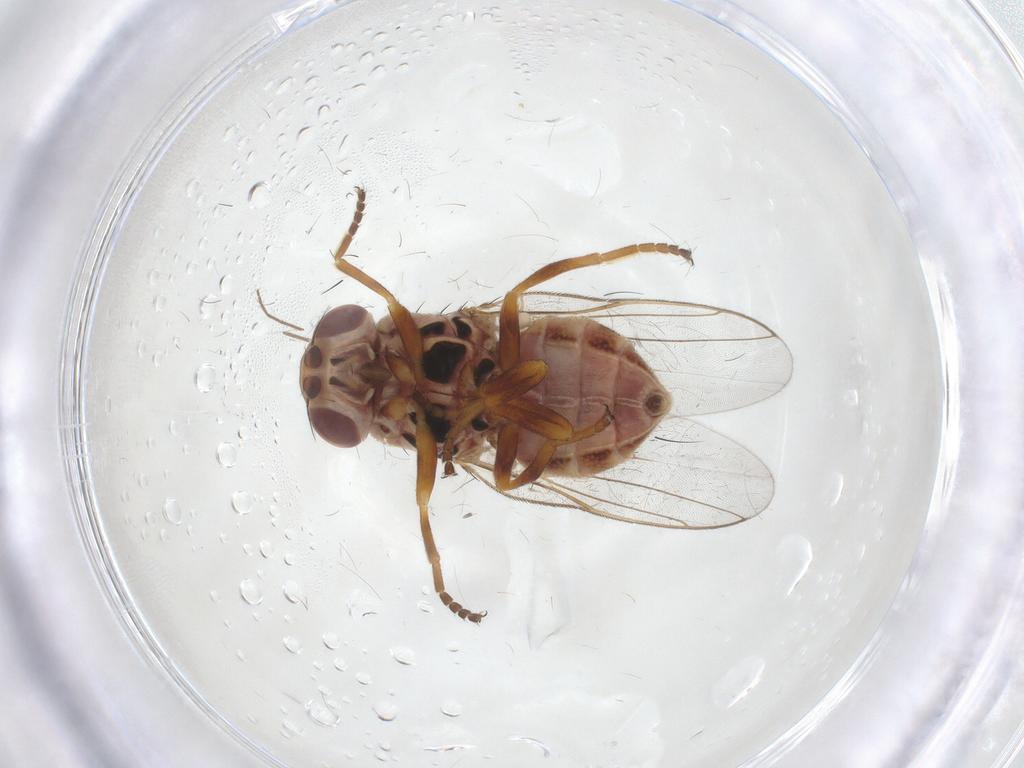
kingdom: Animalia
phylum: Arthropoda
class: Insecta
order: Diptera
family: Chloropidae
